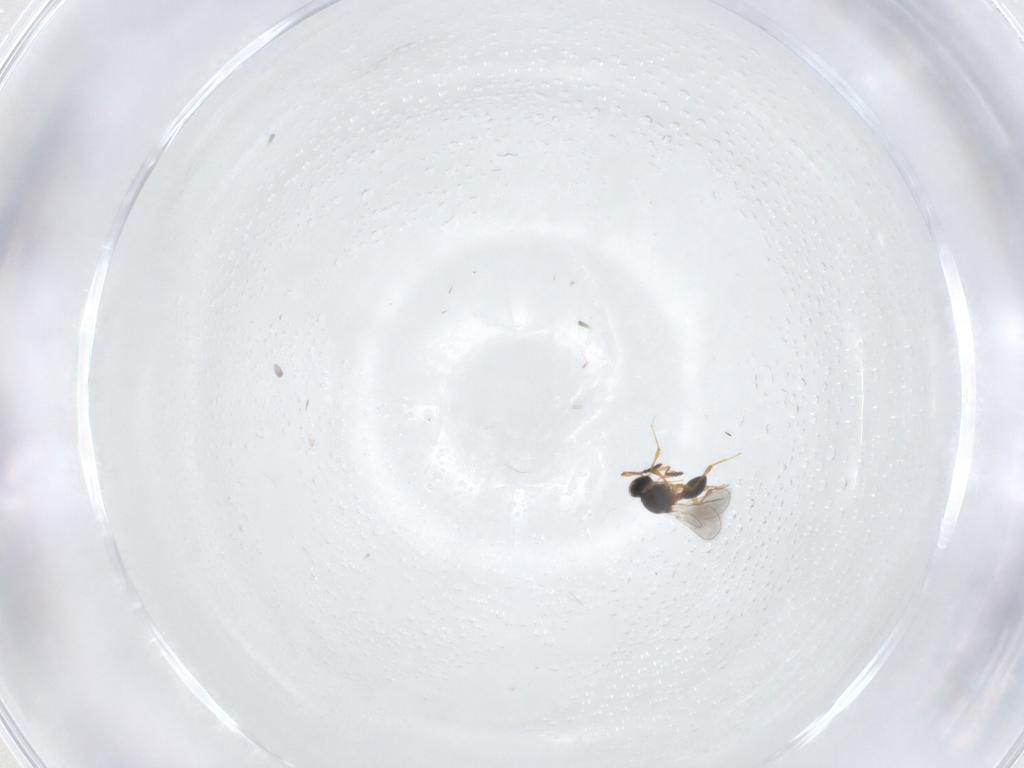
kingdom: Animalia
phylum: Arthropoda
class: Insecta
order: Hymenoptera
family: Platygastridae
